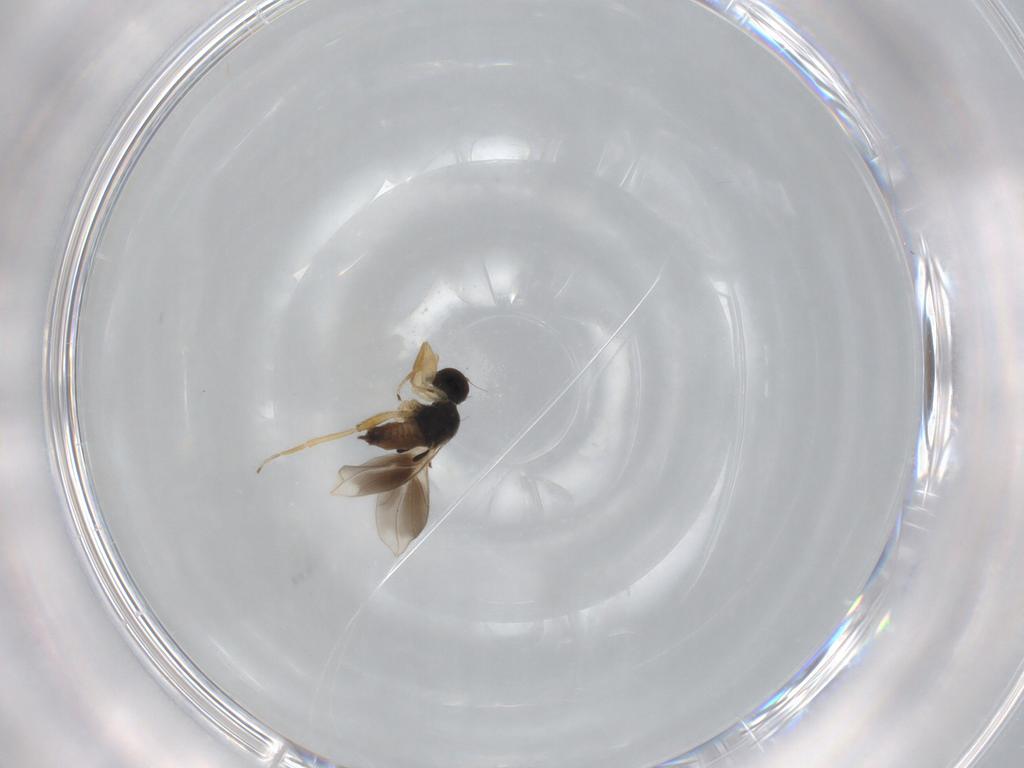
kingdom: Animalia
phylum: Arthropoda
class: Insecta
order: Diptera
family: Hybotidae
